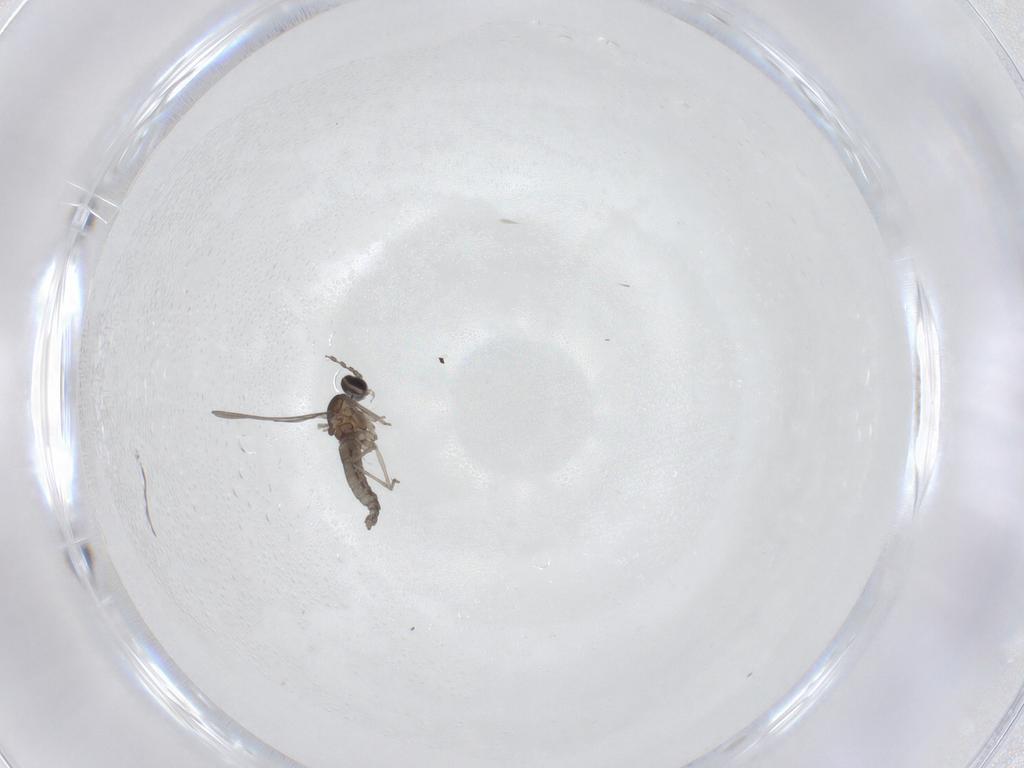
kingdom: Animalia
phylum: Arthropoda
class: Insecta
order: Diptera
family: Cecidomyiidae
